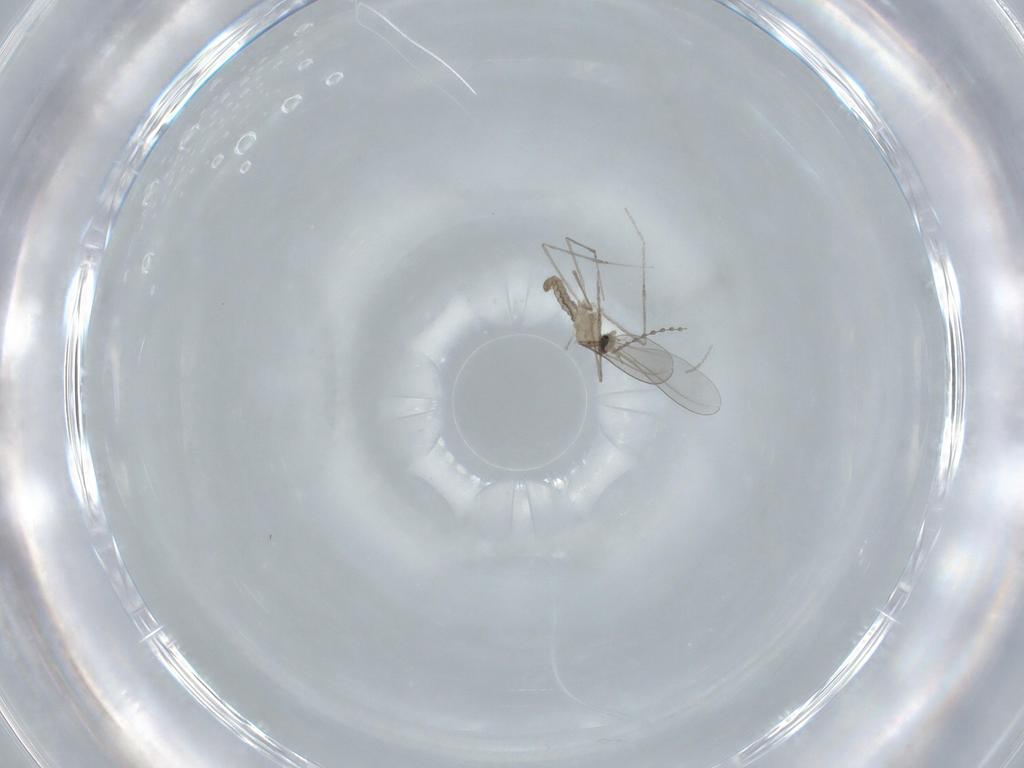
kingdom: Animalia
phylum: Arthropoda
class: Insecta
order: Diptera
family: Cecidomyiidae
